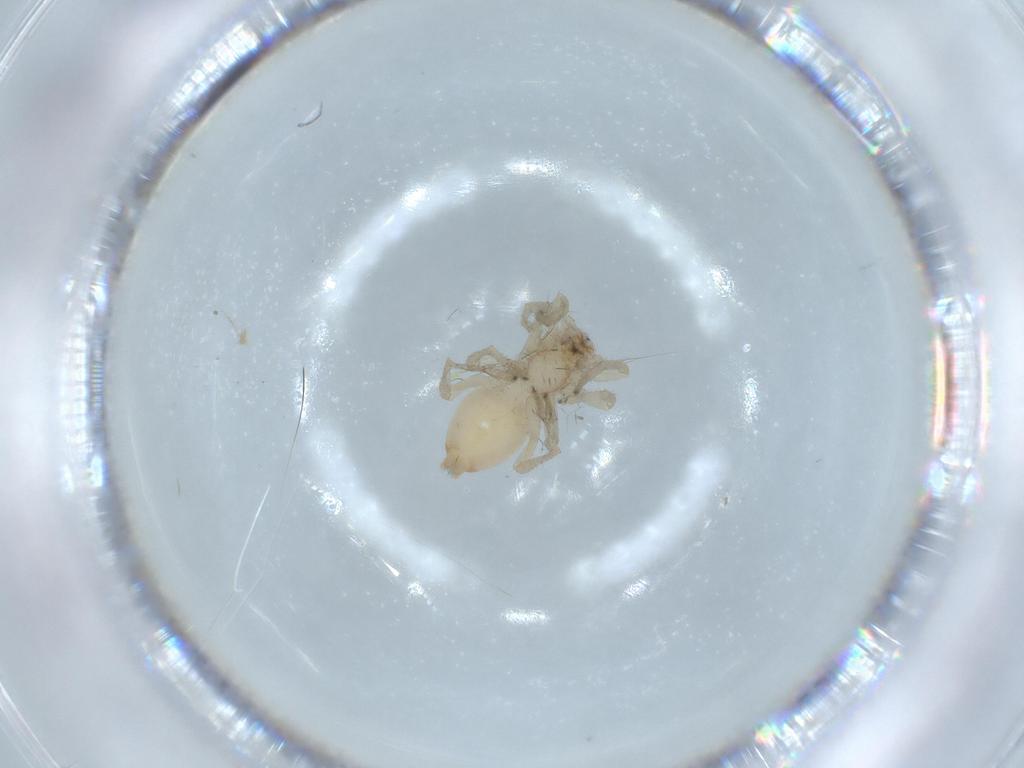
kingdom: Animalia
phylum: Arthropoda
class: Arachnida
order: Araneae
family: Clubionidae
